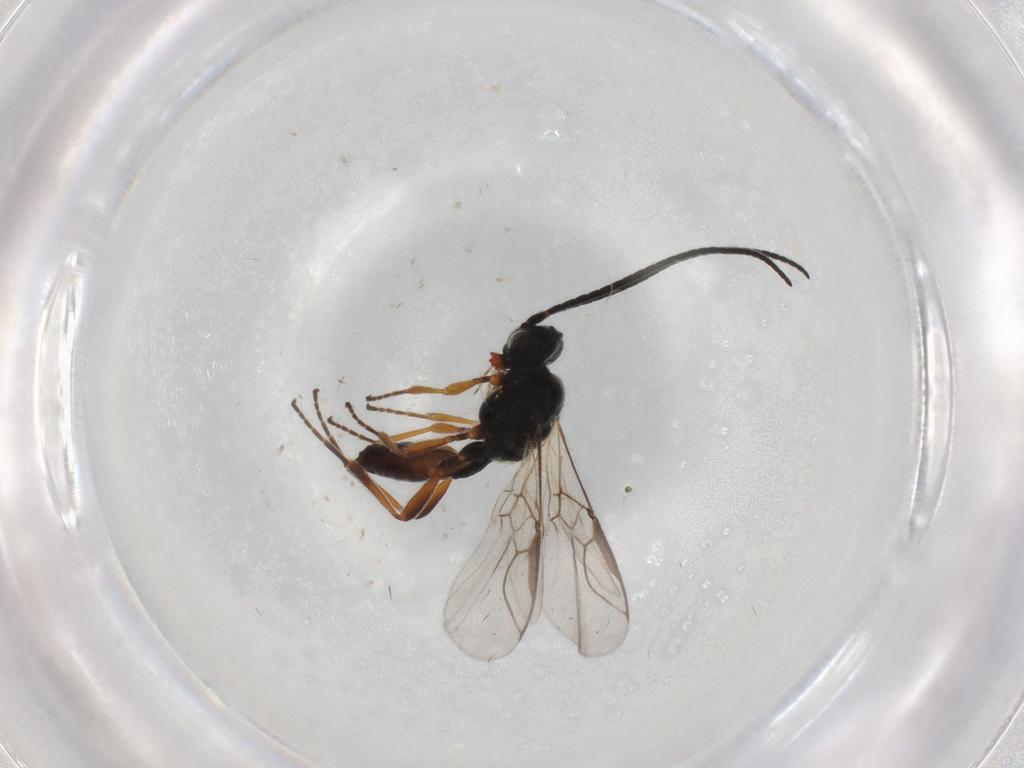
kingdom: Animalia
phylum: Arthropoda
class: Insecta
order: Hymenoptera
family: Braconidae
